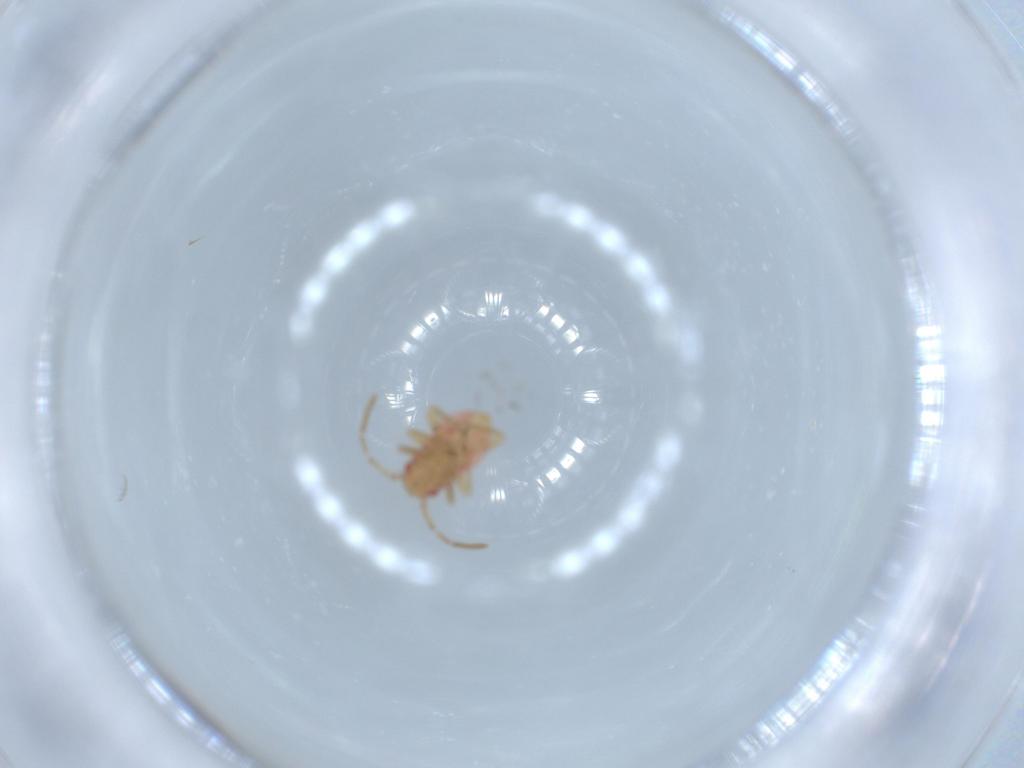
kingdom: Animalia
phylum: Arthropoda
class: Insecta
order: Hemiptera
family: Miridae
